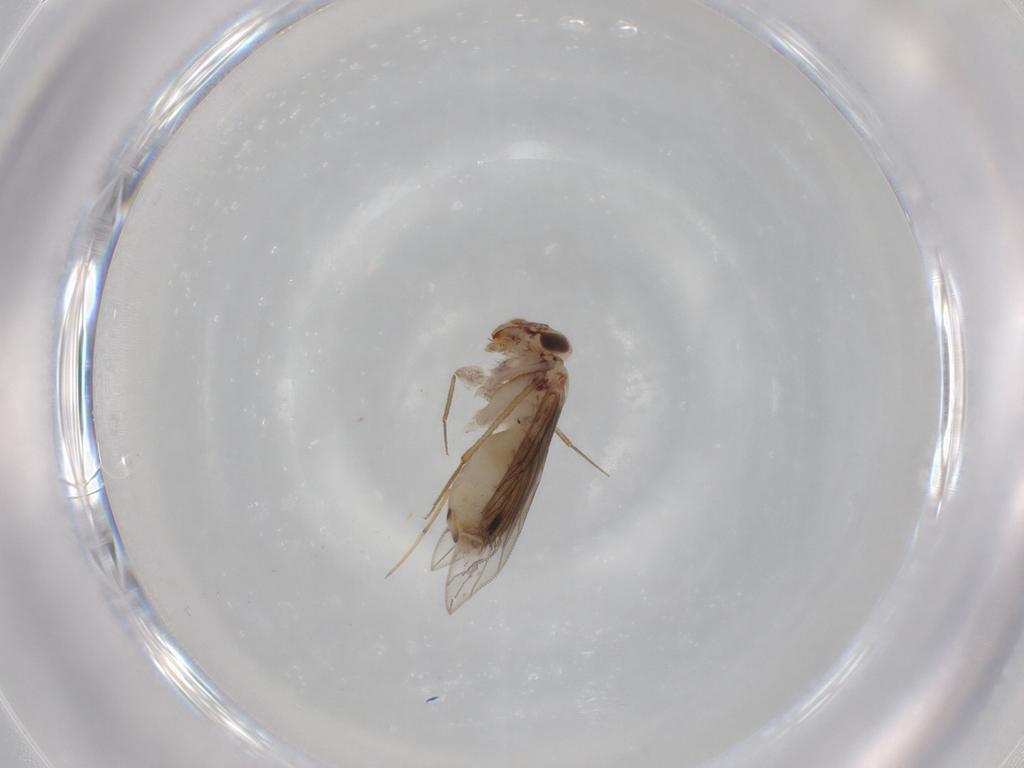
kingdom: Animalia
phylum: Arthropoda
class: Insecta
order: Psocodea
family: Lepidopsocidae
